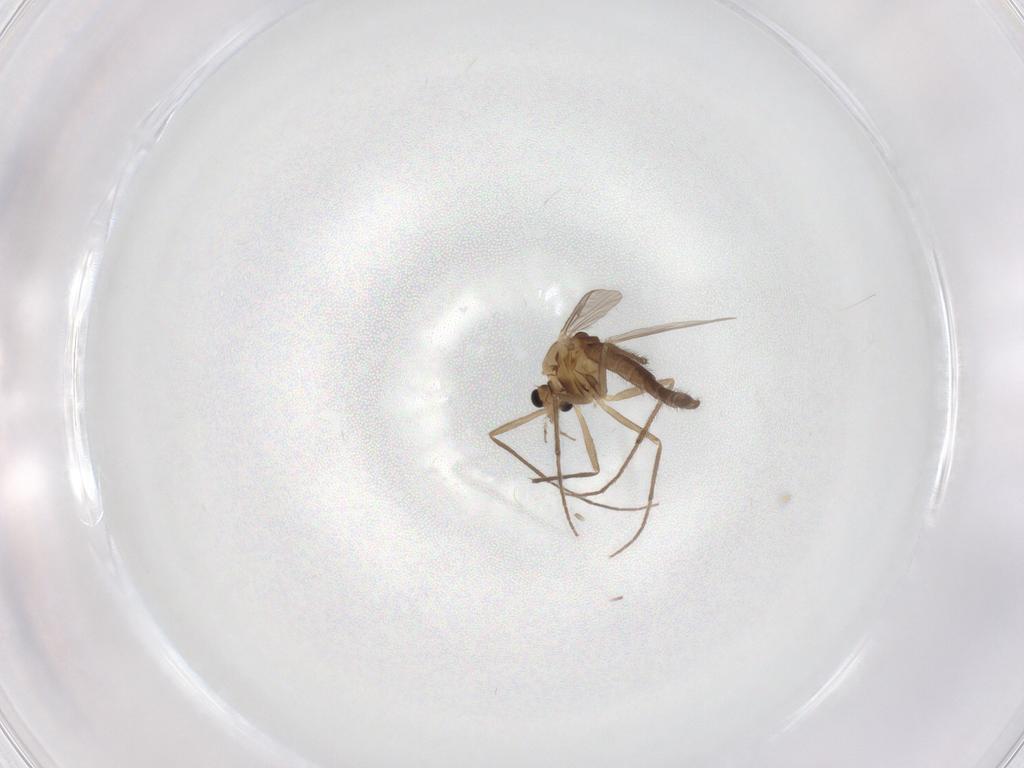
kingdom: Animalia
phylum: Arthropoda
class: Insecta
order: Diptera
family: Chironomidae
